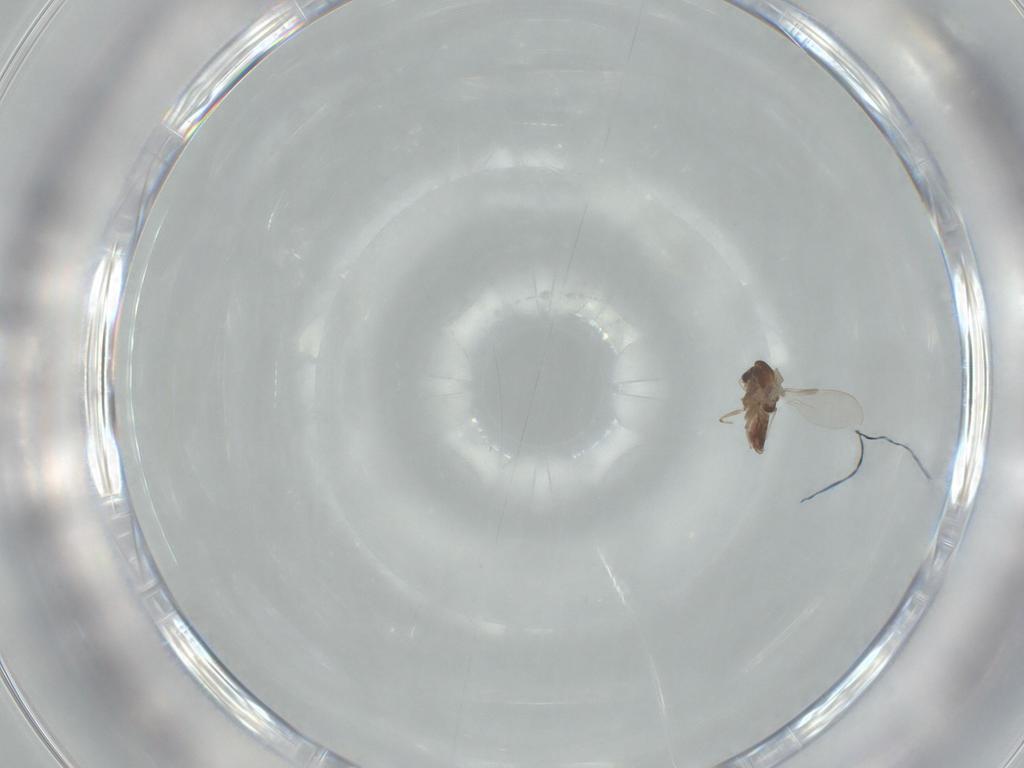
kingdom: Animalia
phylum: Arthropoda
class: Insecta
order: Diptera
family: Chironomidae
